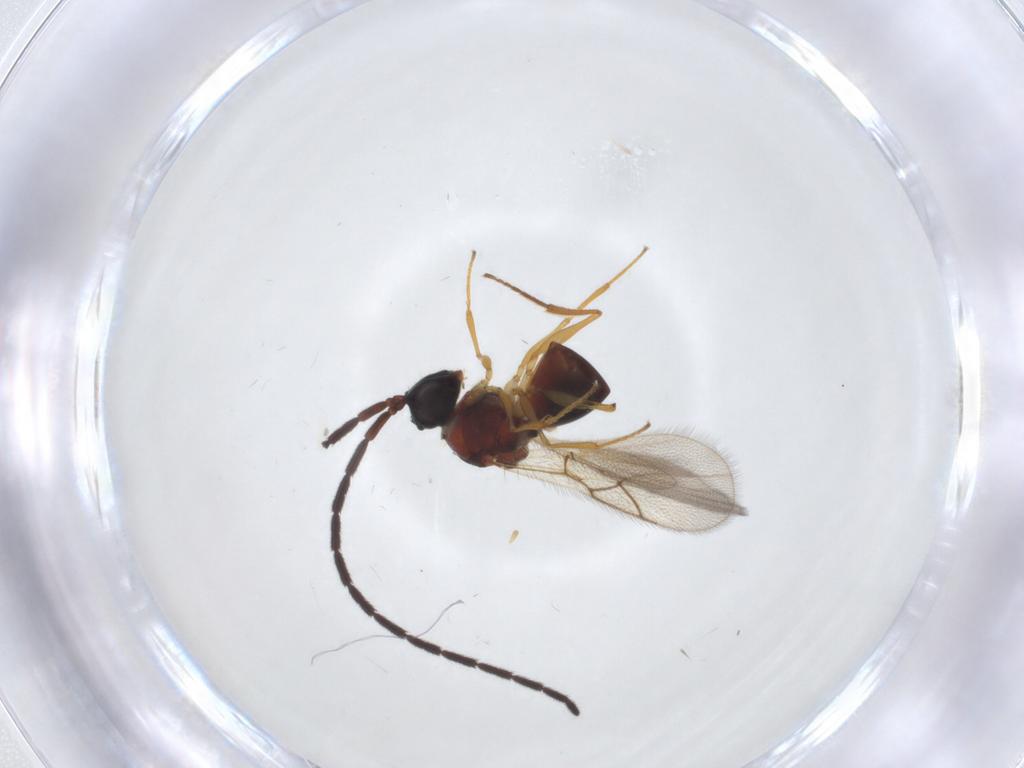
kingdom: Animalia
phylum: Arthropoda
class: Insecta
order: Hymenoptera
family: Figitidae
